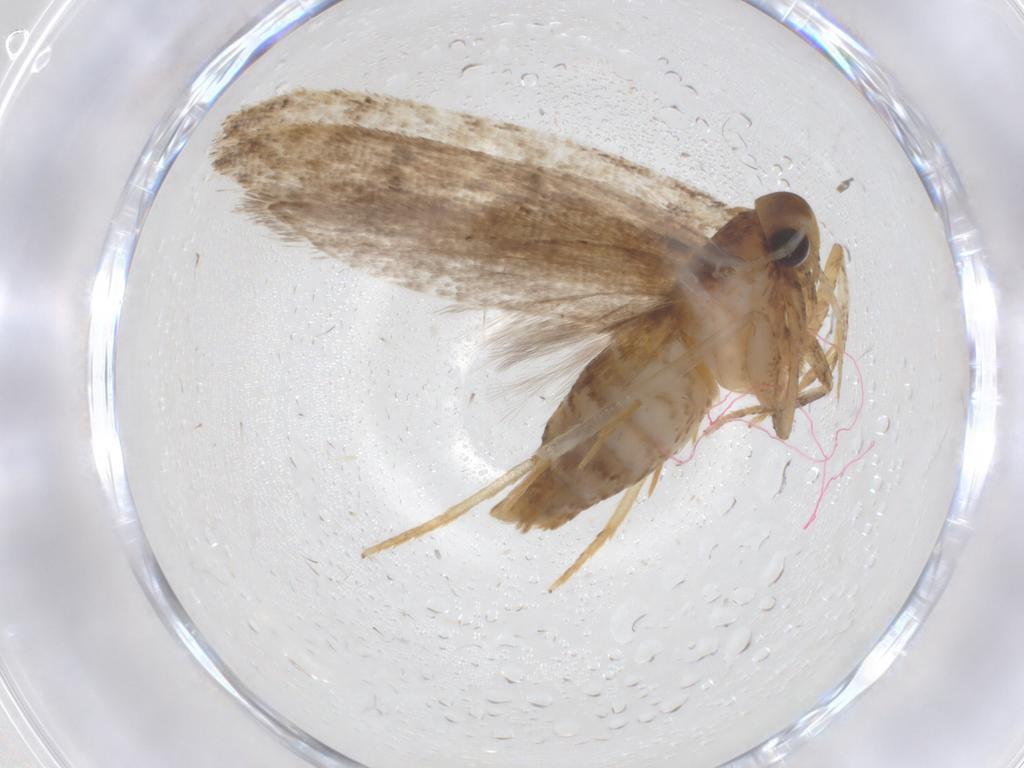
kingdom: Animalia
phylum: Arthropoda
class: Insecta
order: Lepidoptera
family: Oecophoridae
